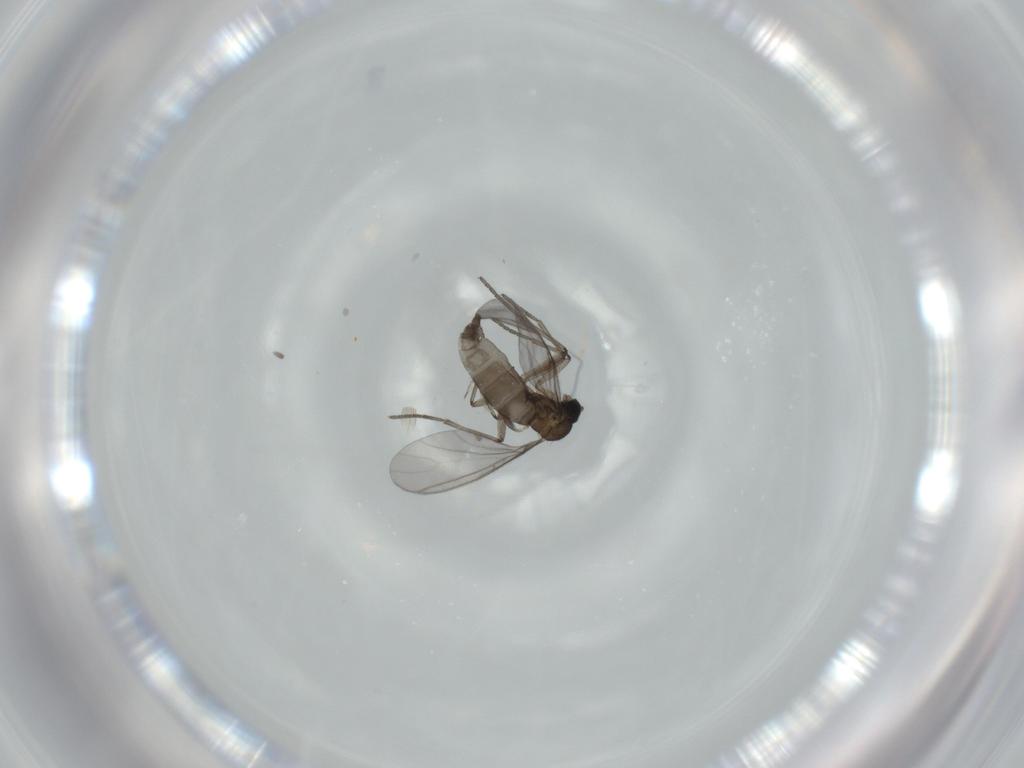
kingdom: Animalia
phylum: Arthropoda
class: Insecta
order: Diptera
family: Sciaridae
